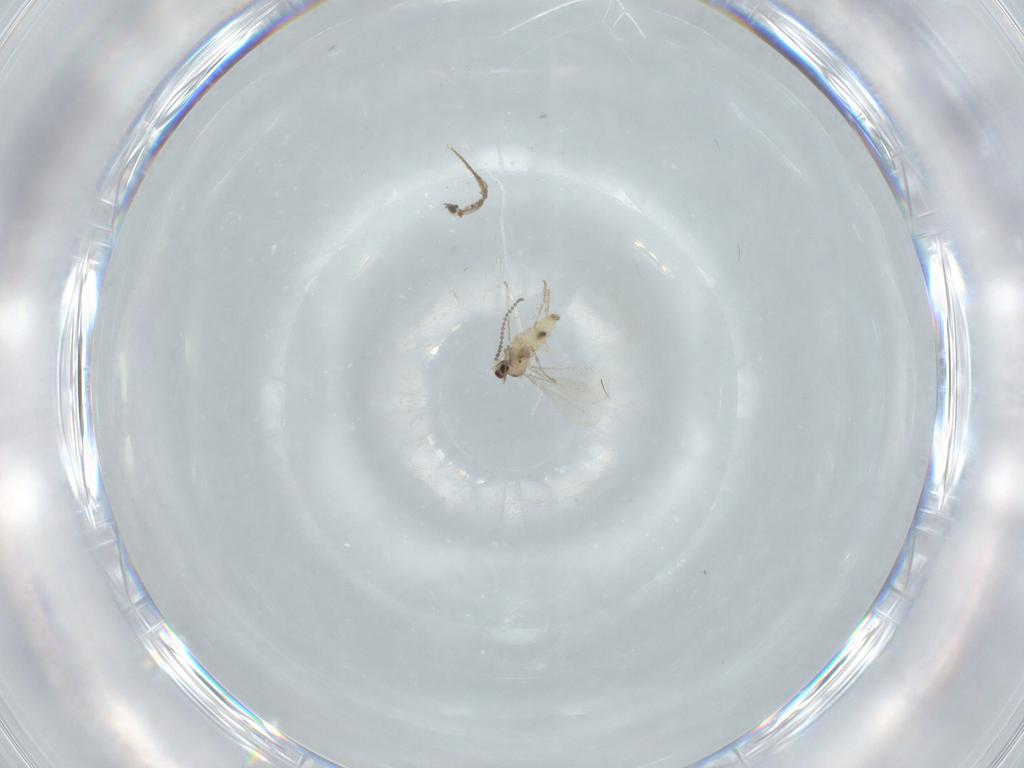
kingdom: Animalia
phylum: Arthropoda
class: Insecta
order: Diptera
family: Cecidomyiidae
